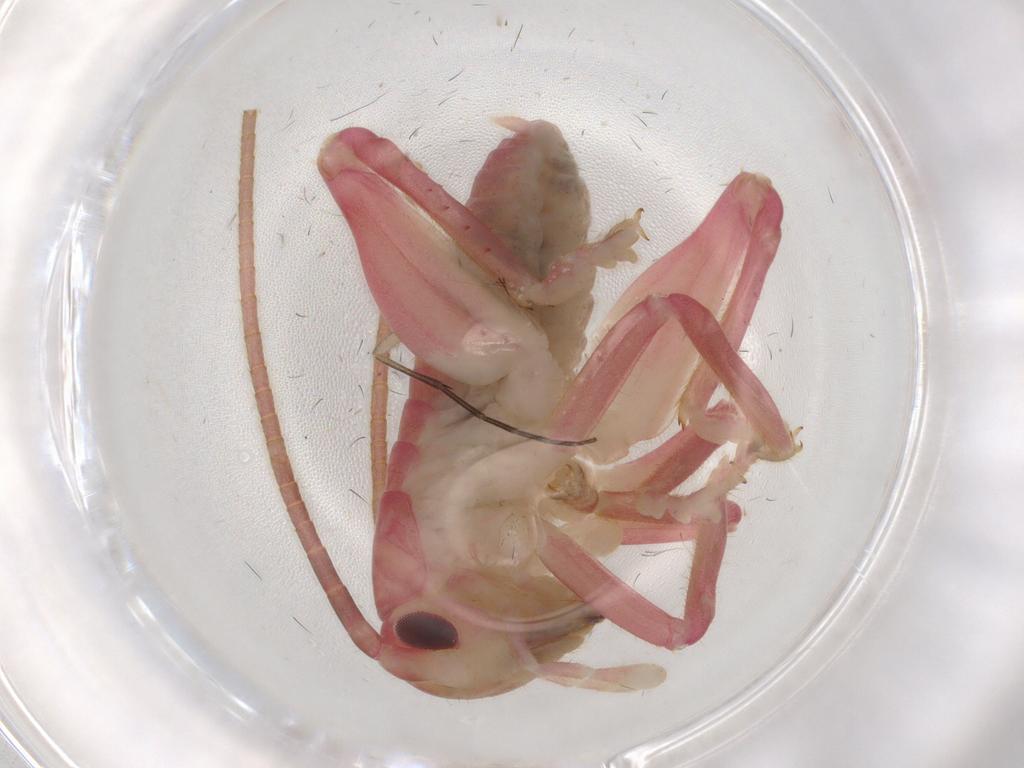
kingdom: Animalia
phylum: Arthropoda
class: Insecta
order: Orthoptera
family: Gryllacrididae
